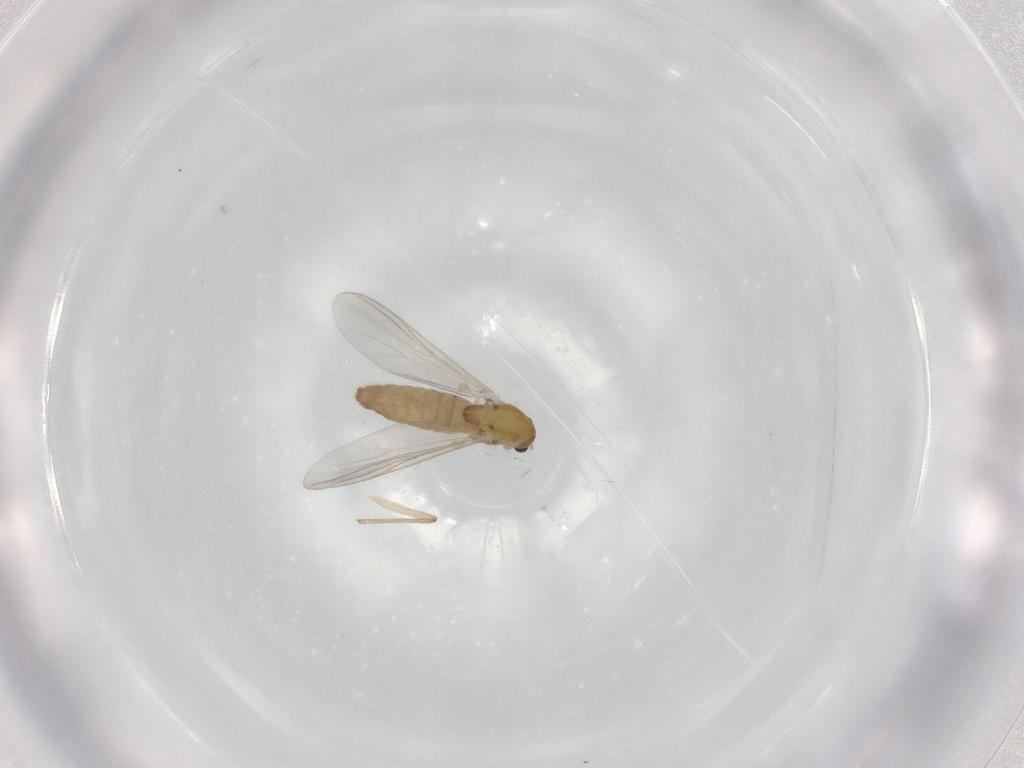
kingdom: Animalia
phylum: Arthropoda
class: Insecta
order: Diptera
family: Chironomidae
